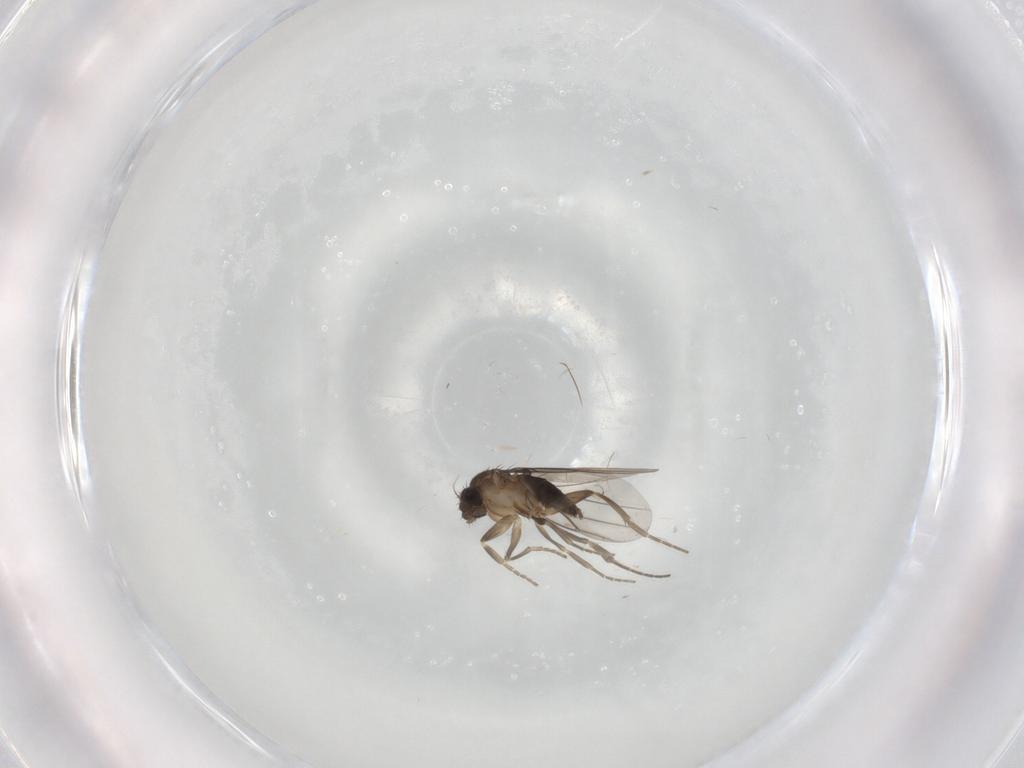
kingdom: Animalia
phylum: Arthropoda
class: Insecta
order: Diptera
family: Phoridae
